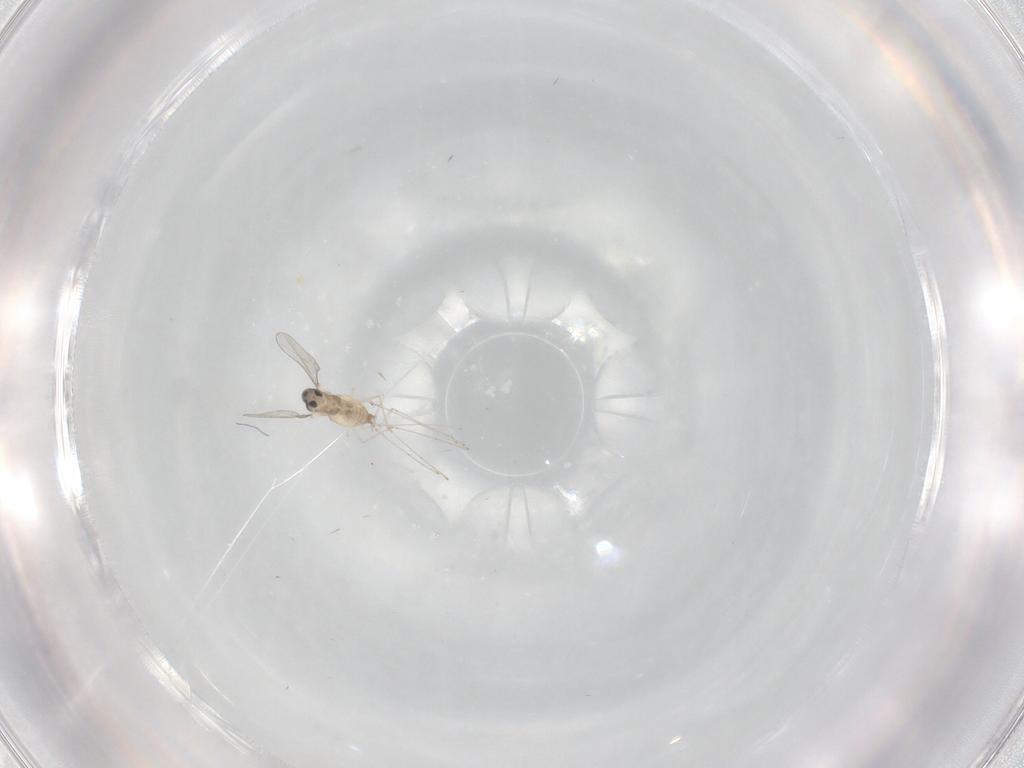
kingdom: Animalia
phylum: Arthropoda
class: Insecta
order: Diptera
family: Cecidomyiidae
